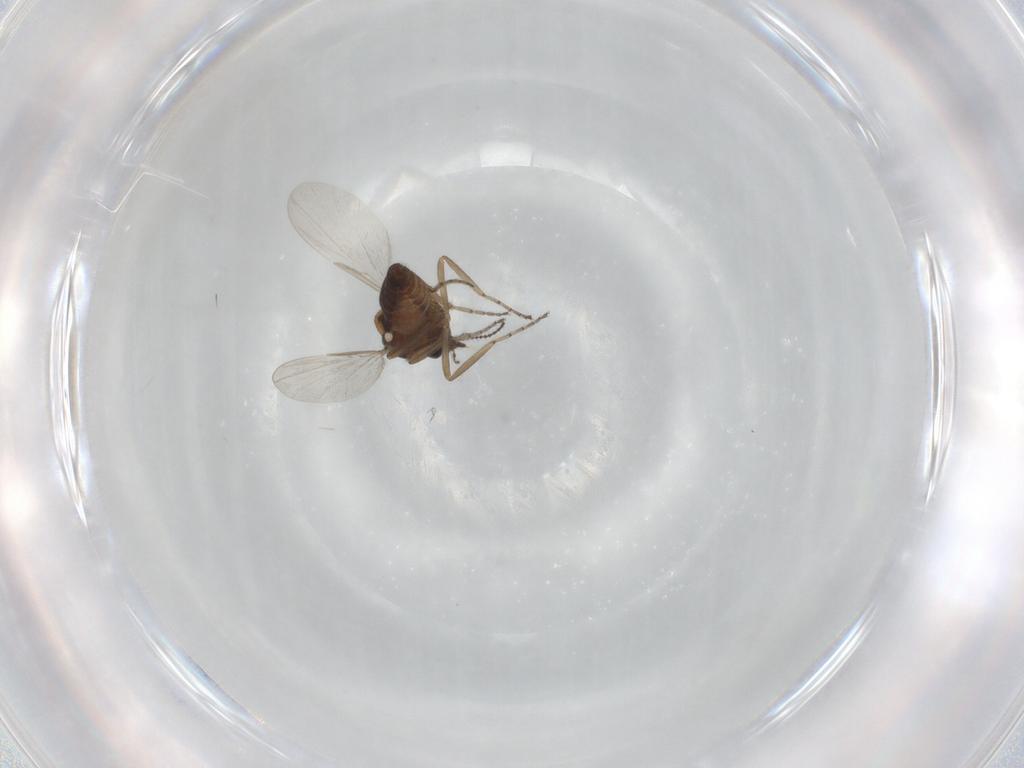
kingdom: Animalia
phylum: Arthropoda
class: Insecta
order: Diptera
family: Ceratopogonidae
